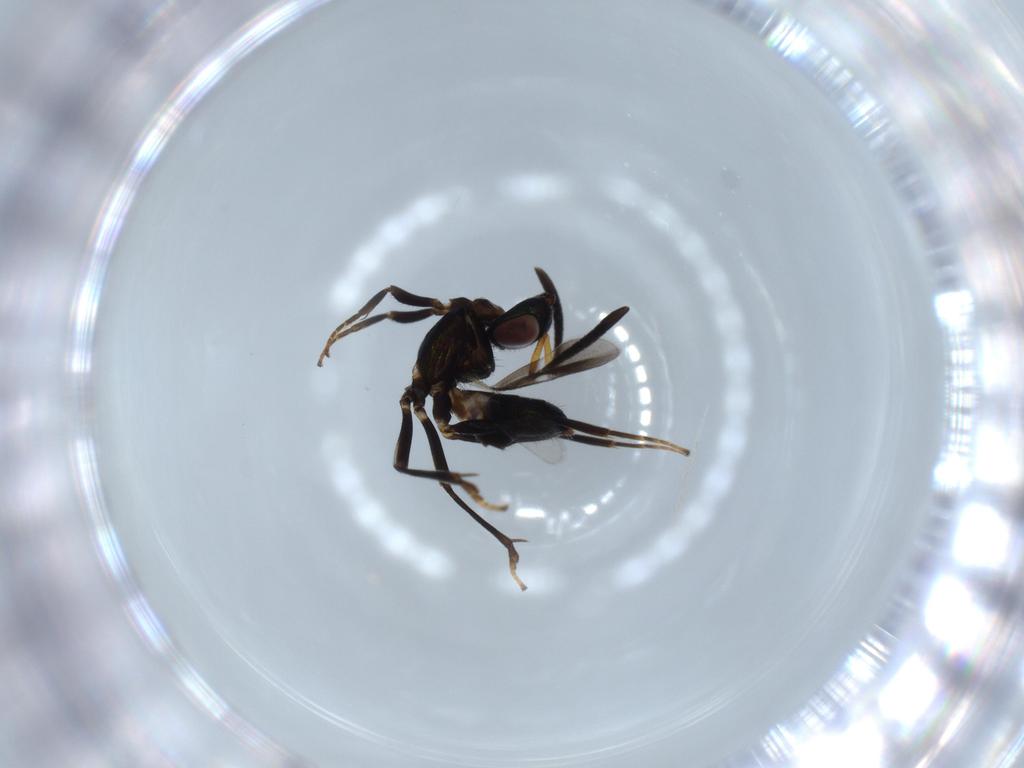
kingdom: Animalia
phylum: Arthropoda
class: Insecta
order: Hymenoptera
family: Eupelmidae
